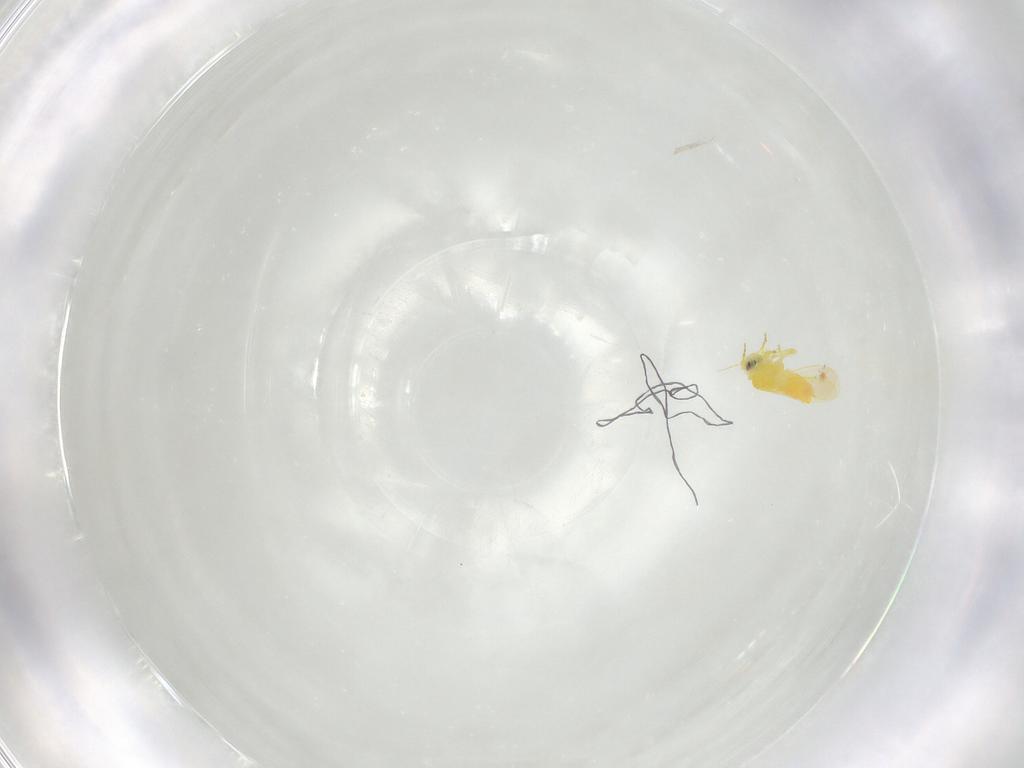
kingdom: Animalia
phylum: Arthropoda
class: Insecta
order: Hemiptera
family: Aleyrodidae
